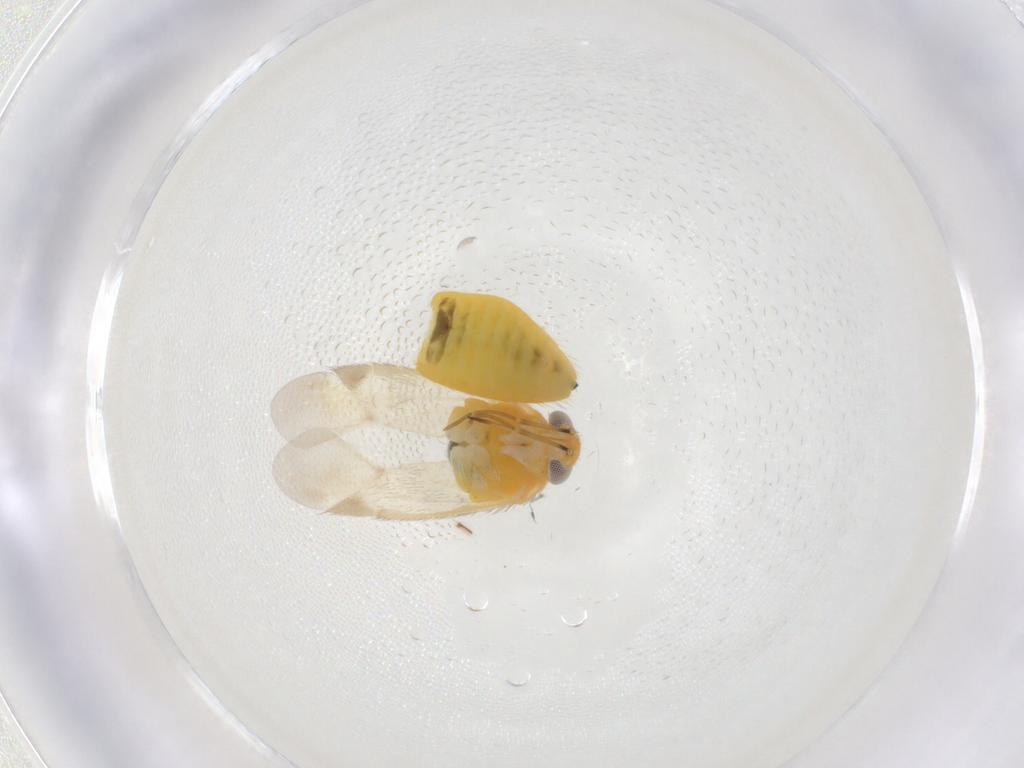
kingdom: Animalia
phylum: Arthropoda
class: Insecta
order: Hemiptera
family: Miridae
